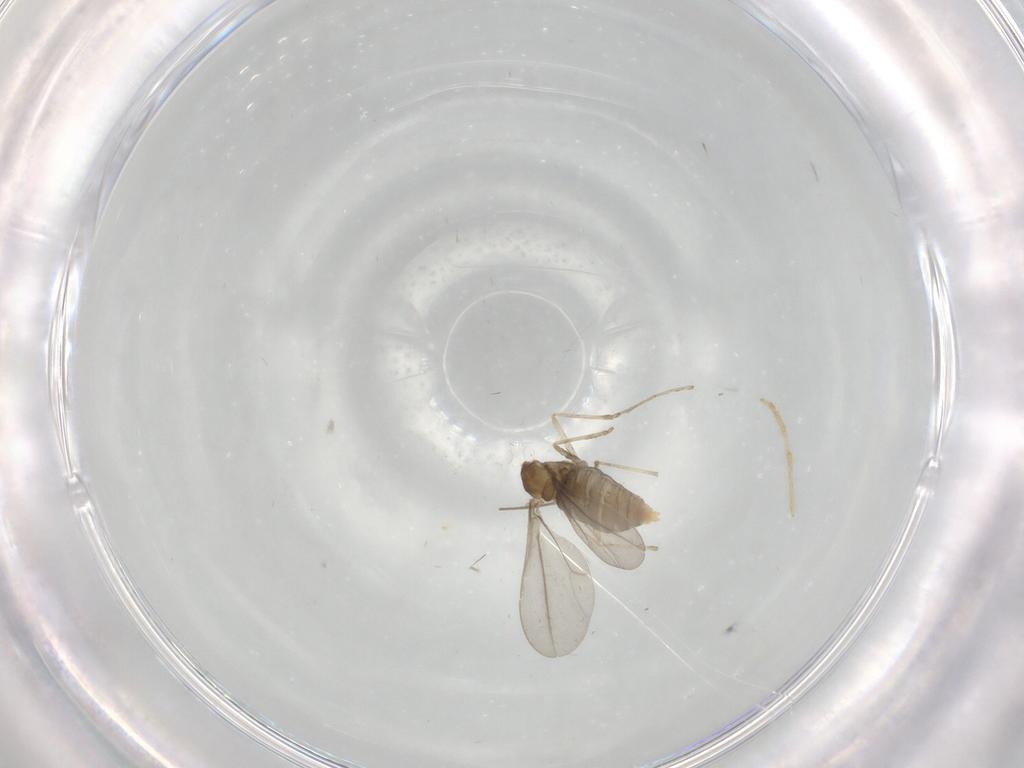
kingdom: Animalia
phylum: Arthropoda
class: Insecta
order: Diptera
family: Cecidomyiidae
